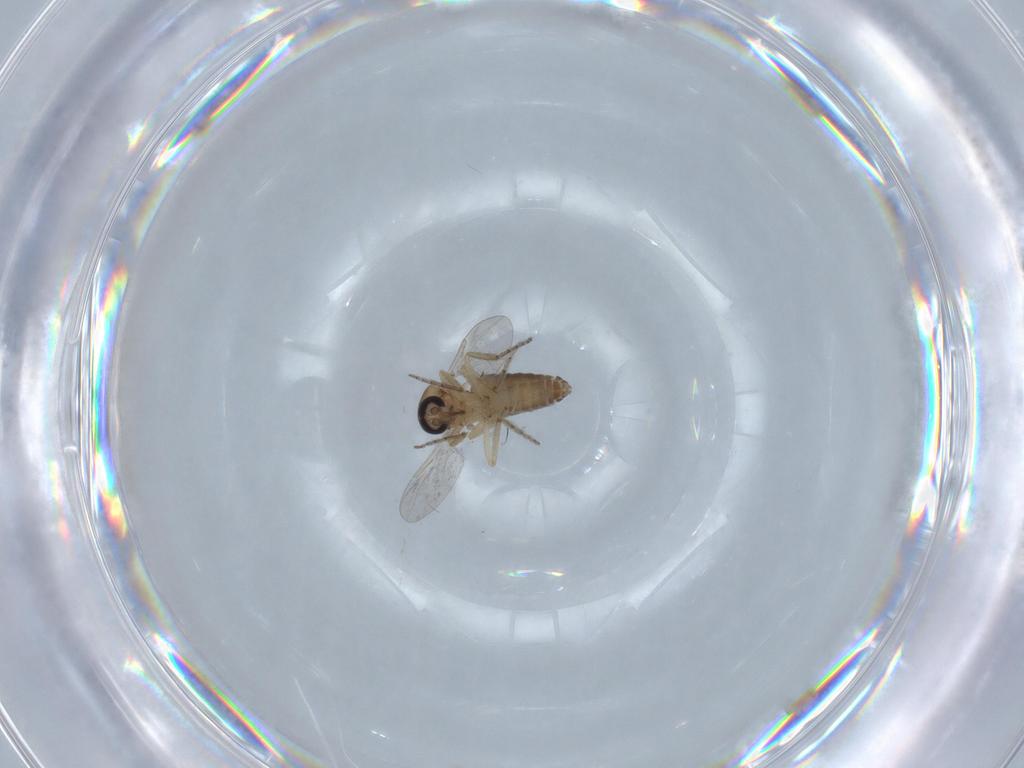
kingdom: Animalia
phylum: Arthropoda
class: Insecta
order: Diptera
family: Ceratopogonidae
